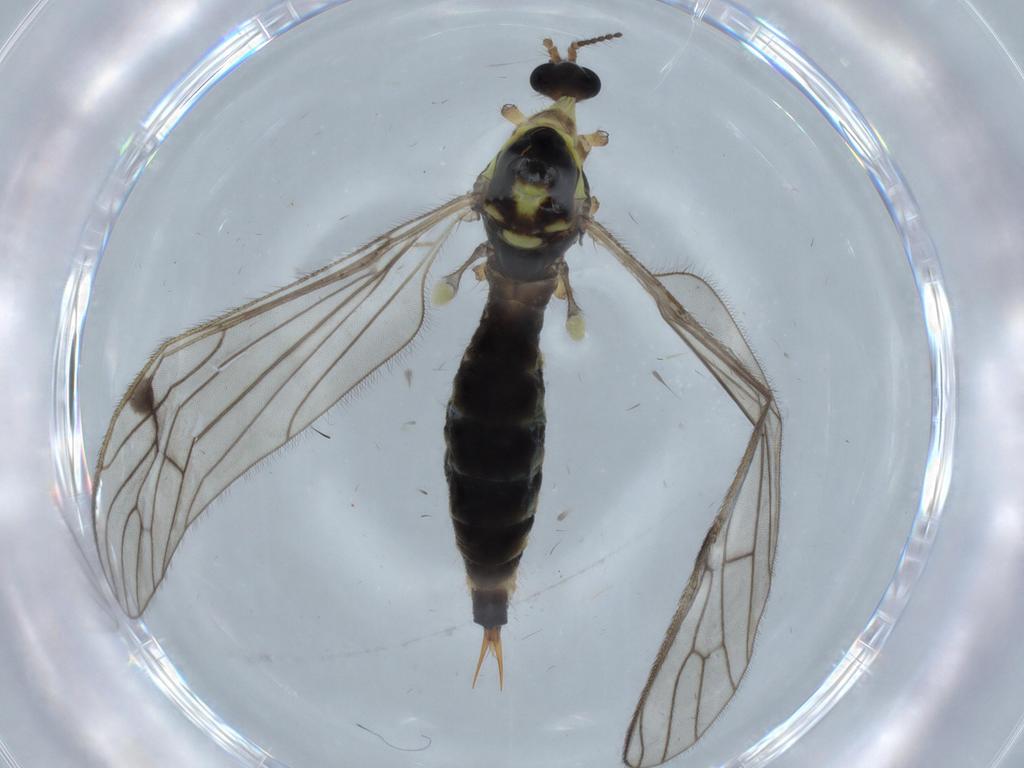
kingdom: Animalia
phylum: Arthropoda
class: Insecta
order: Diptera
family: Limoniidae
